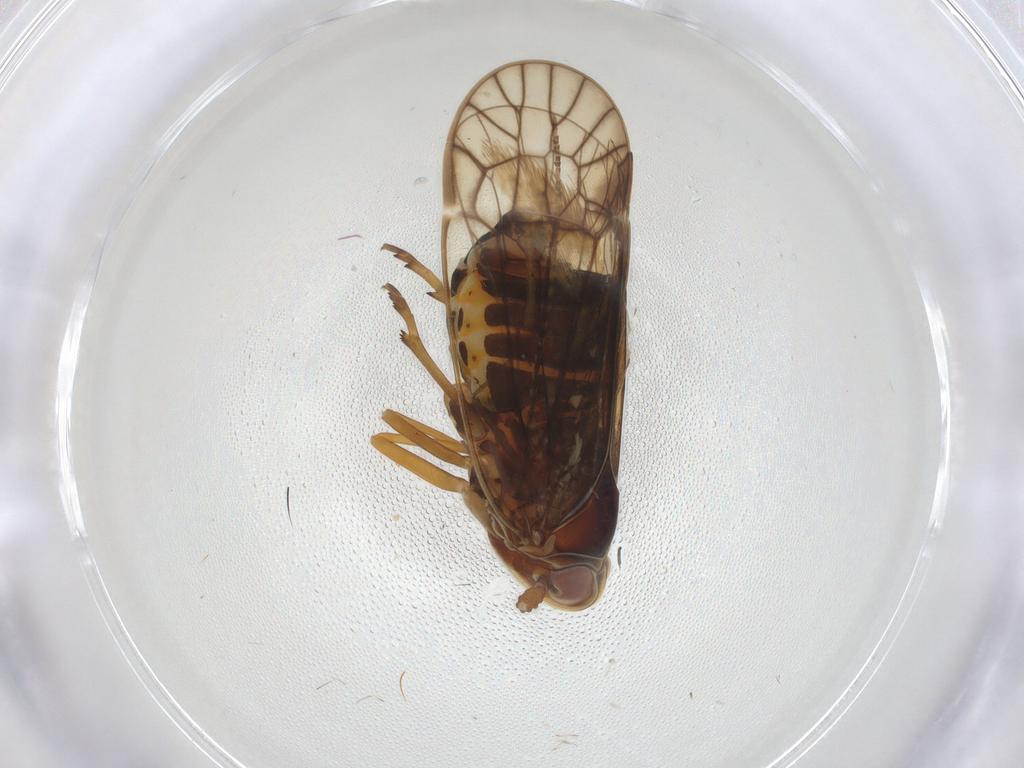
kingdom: Animalia
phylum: Arthropoda
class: Insecta
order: Hemiptera
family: Kinnaridae
